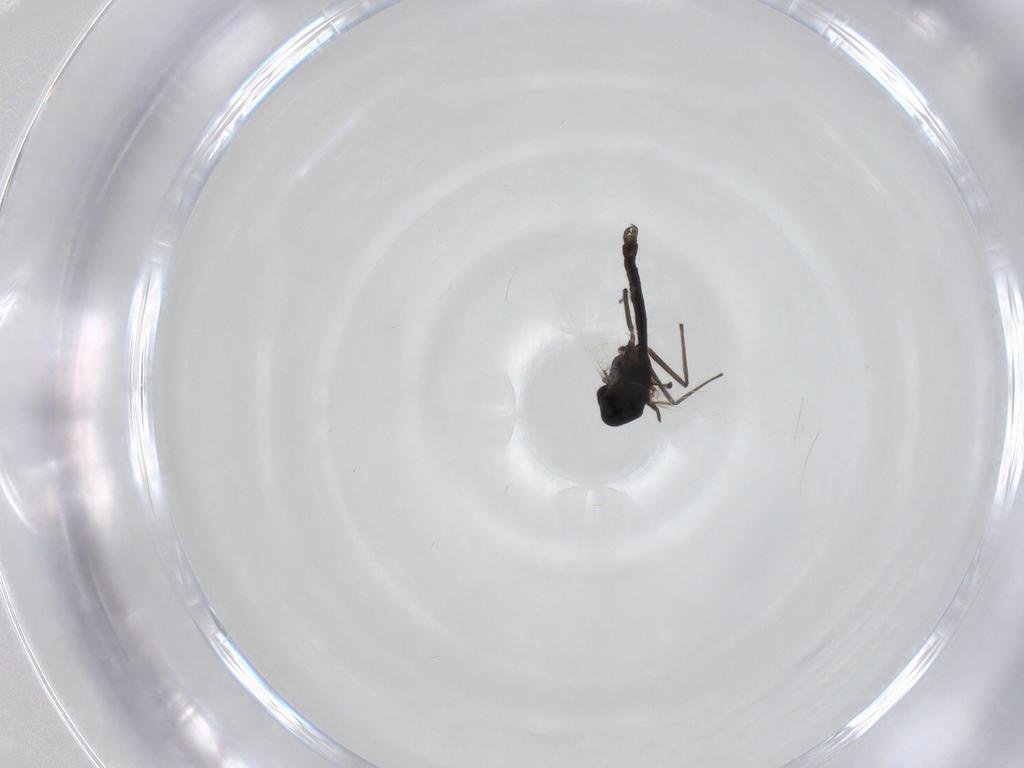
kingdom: Animalia
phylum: Arthropoda
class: Insecta
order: Diptera
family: Chironomidae
